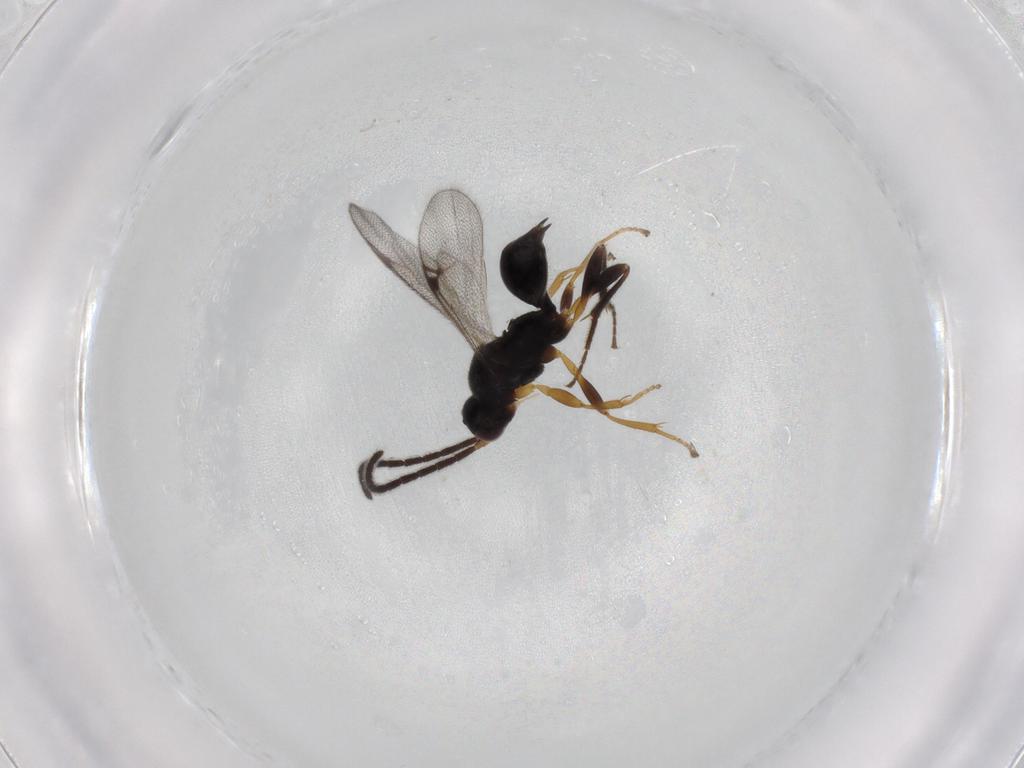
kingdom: Animalia
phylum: Arthropoda
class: Insecta
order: Hymenoptera
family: Proctotrupidae
